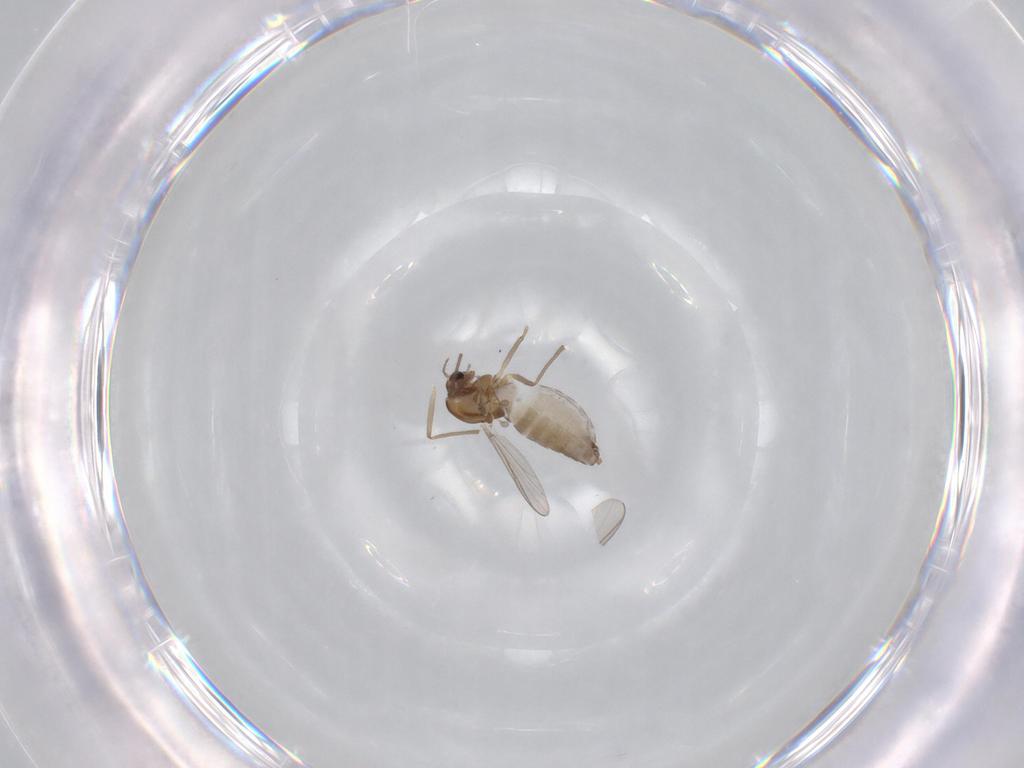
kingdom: Animalia
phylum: Arthropoda
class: Insecta
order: Diptera
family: Chironomidae
